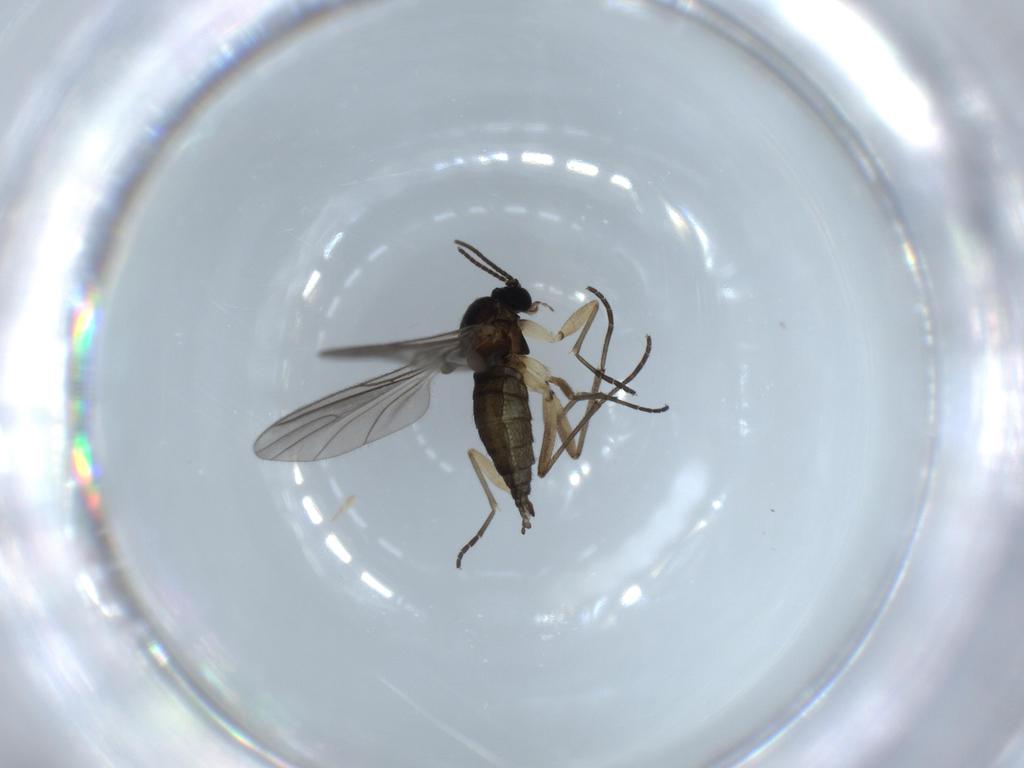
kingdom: Animalia
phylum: Arthropoda
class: Insecta
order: Diptera
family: Sciaridae
